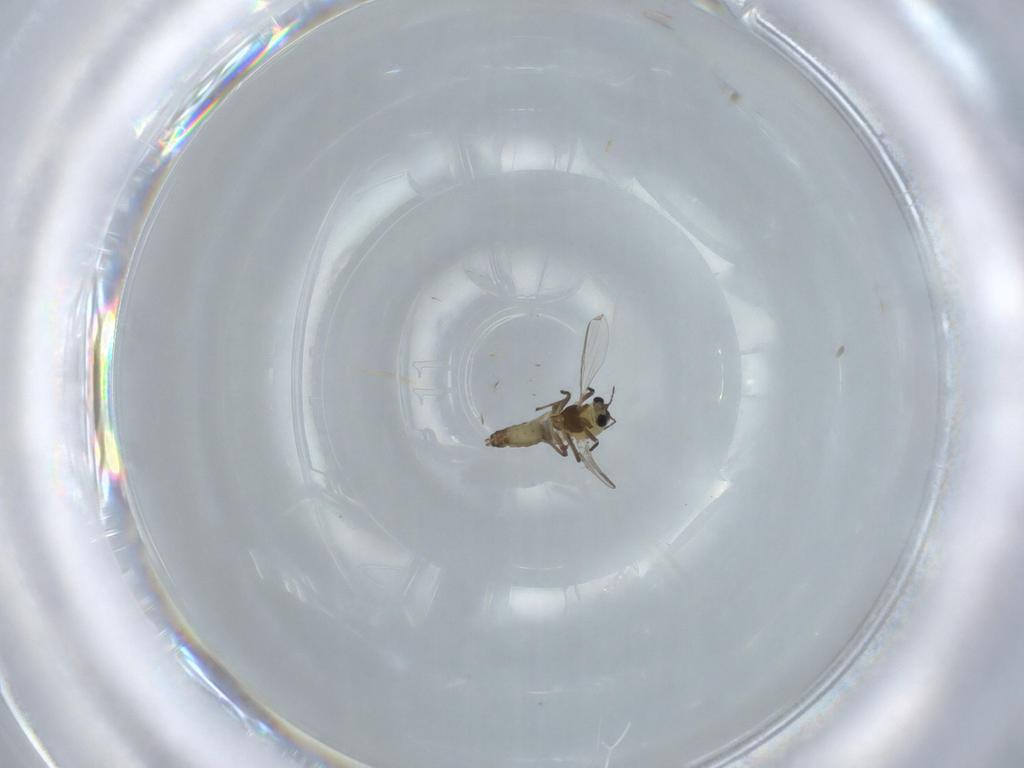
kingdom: Animalia
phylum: Arthropoda
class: Insecta
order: Diptera
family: Chironomidae
